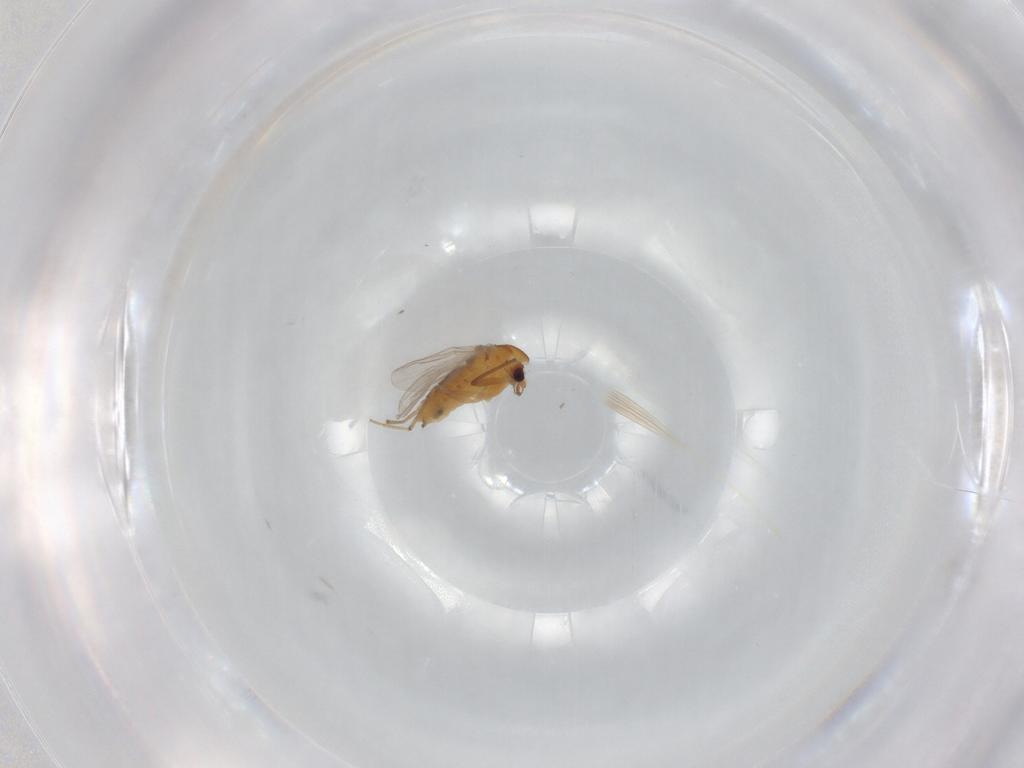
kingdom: Animalia
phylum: Arthropoda
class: Insecta
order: Diptera
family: Chironomidae
